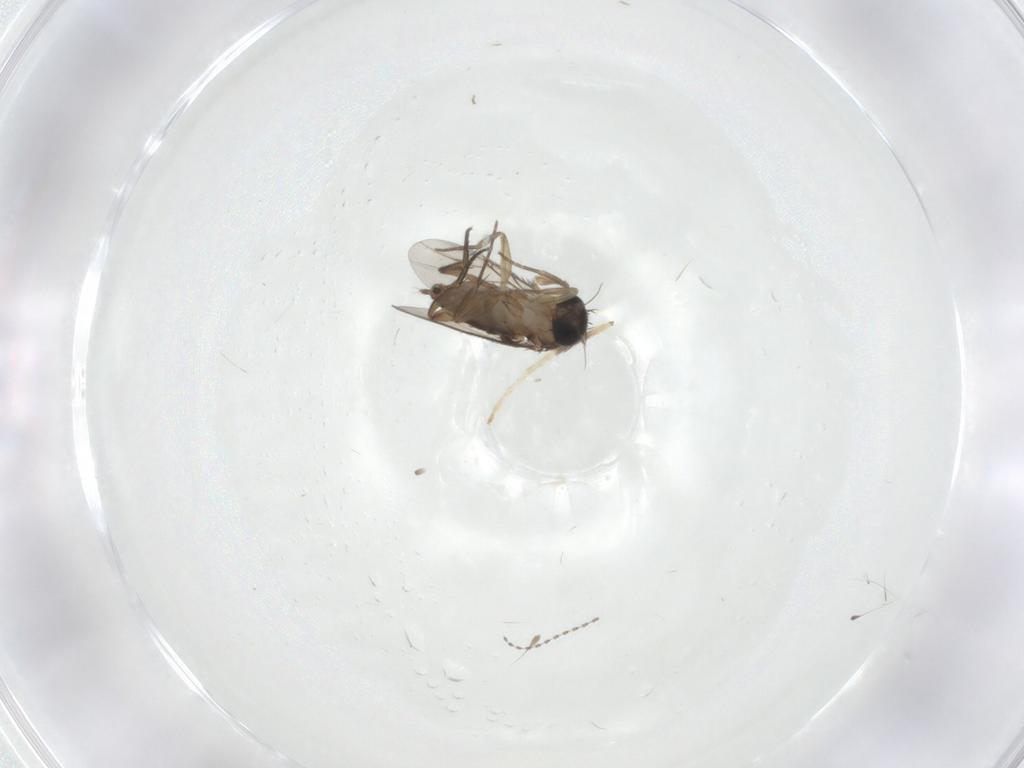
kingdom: Animalia
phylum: Arthropoda
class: Insecta
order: Diptera
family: Phoridae
